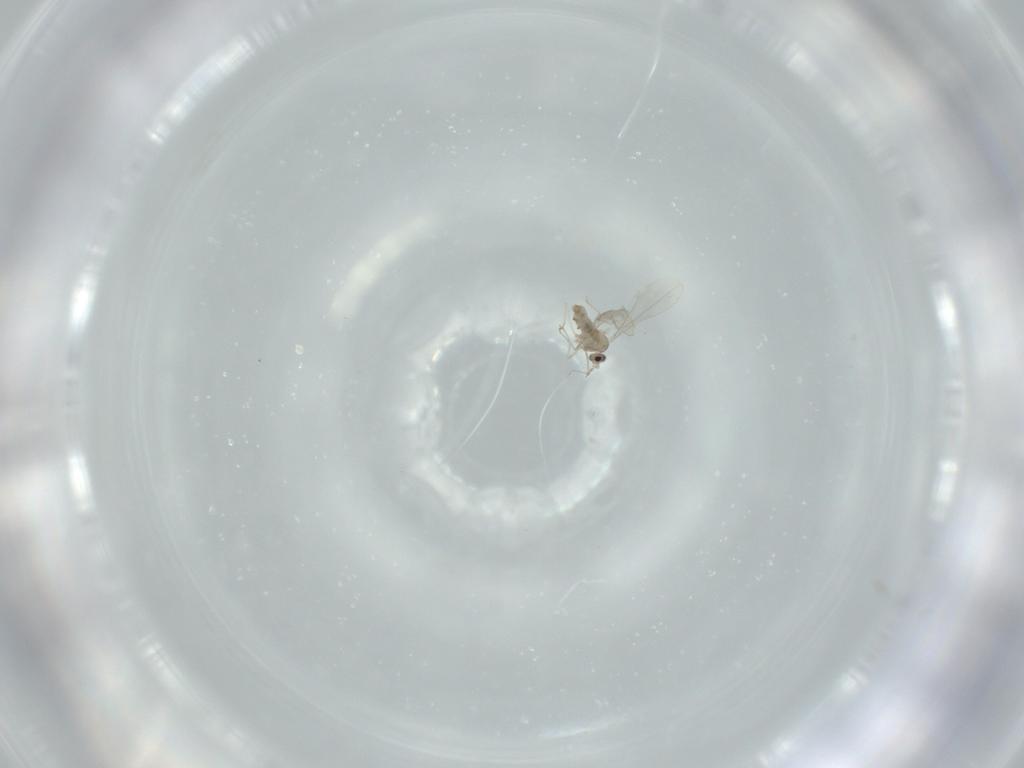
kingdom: Animalia
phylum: Arthropoda
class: Insecta
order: Diptera
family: Cecidomyiidae
